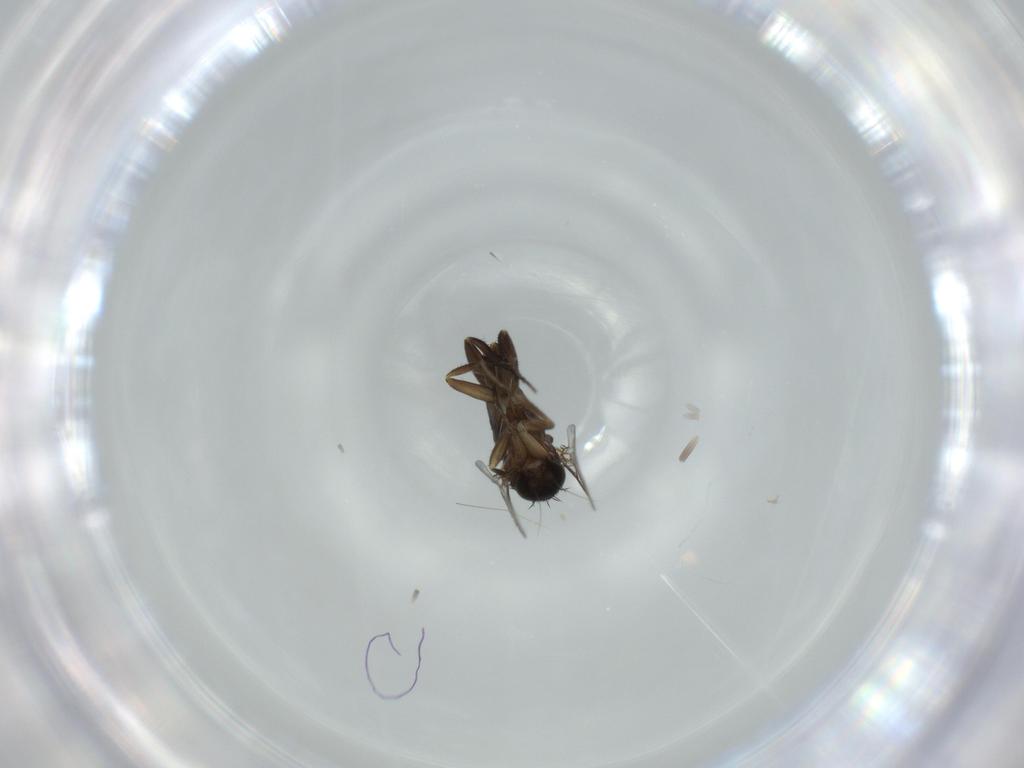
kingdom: Animalia
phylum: Arthropoda
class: Insecta
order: Diptera
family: Phoridae
